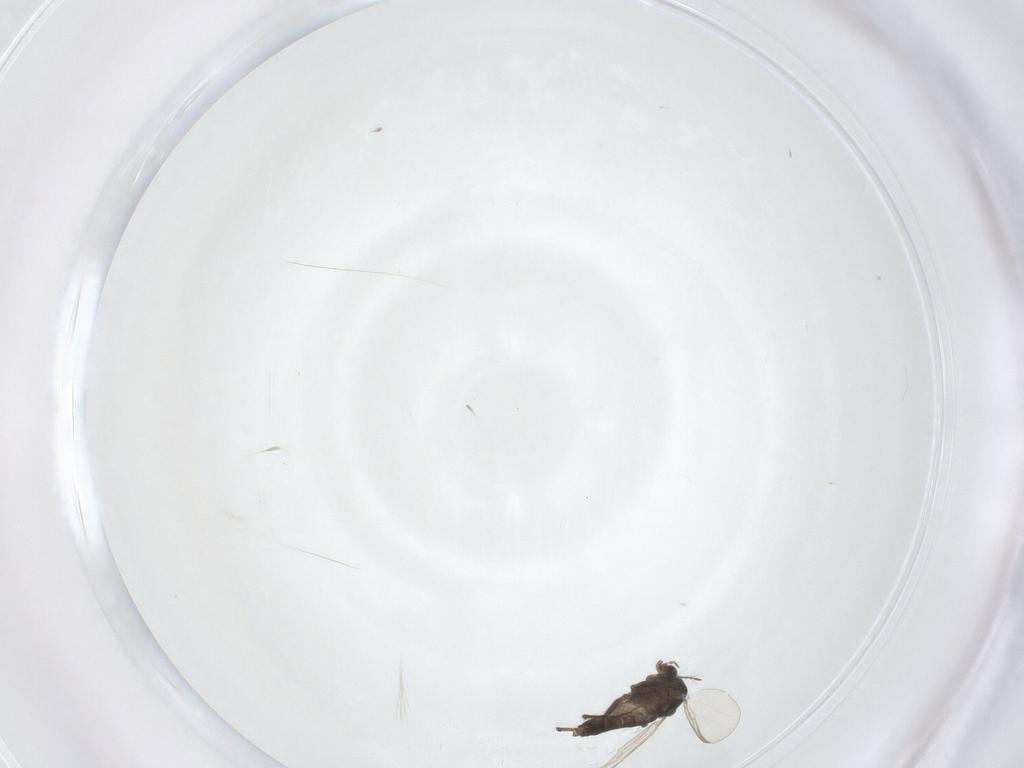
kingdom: Animalia
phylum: Arthropoda
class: Insecta
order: Diptera
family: Chironomidae
